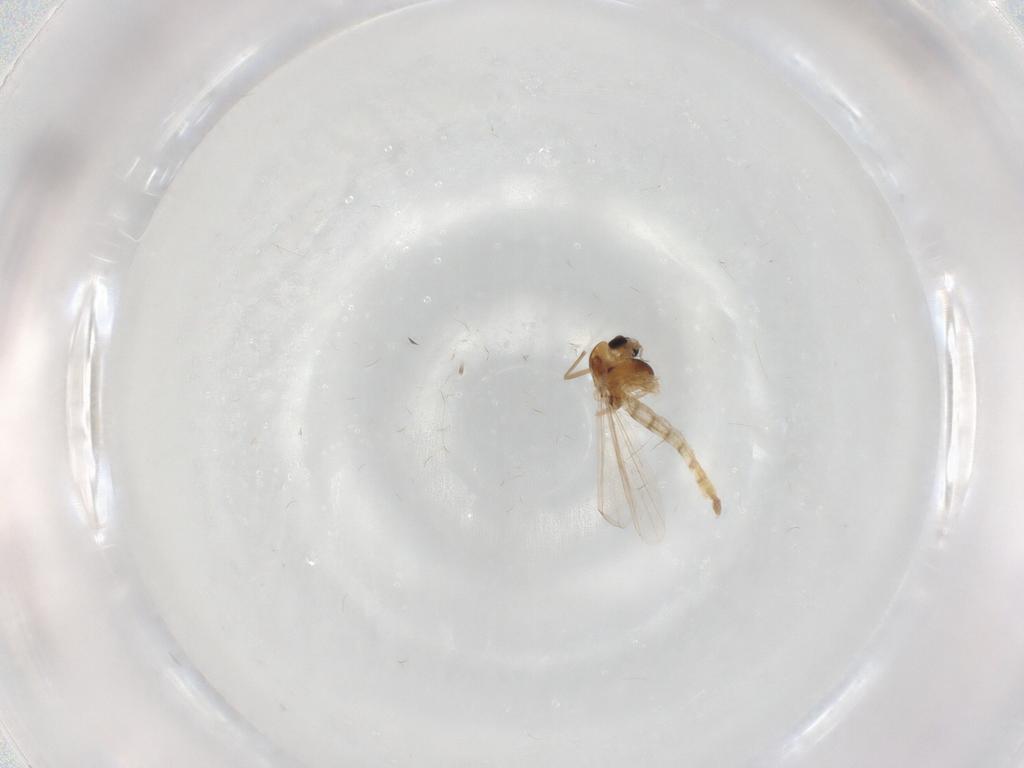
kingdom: Animalia
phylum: Arthropoda
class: Insecta
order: Diptera
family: Chironomidae
